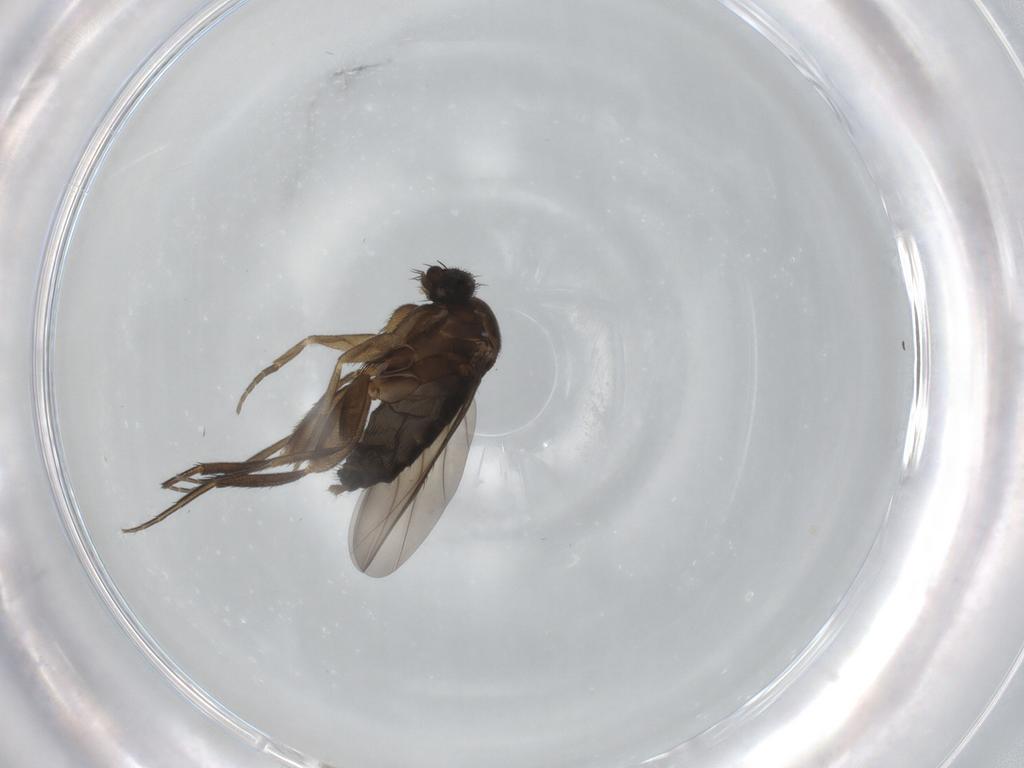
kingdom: Animalia
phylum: Arthropoda
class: Insecta
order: Diptera
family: Phoridae
